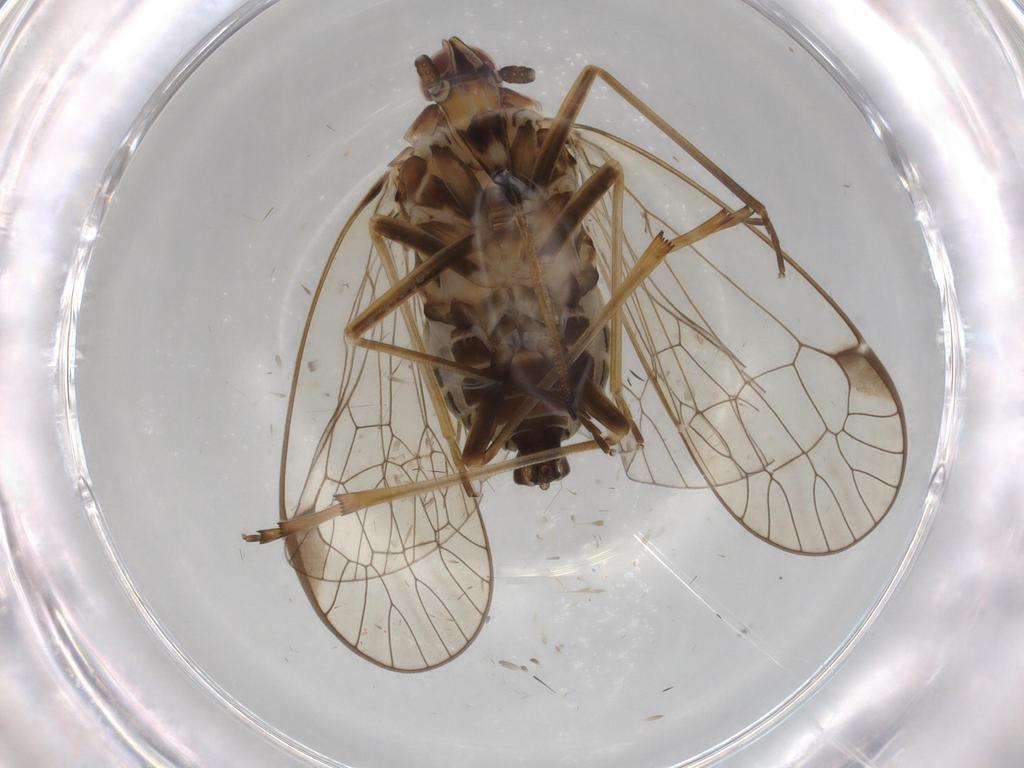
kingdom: Animalia
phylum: Arthropoda
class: Insecta
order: Hemiptera
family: Kinnaridae
